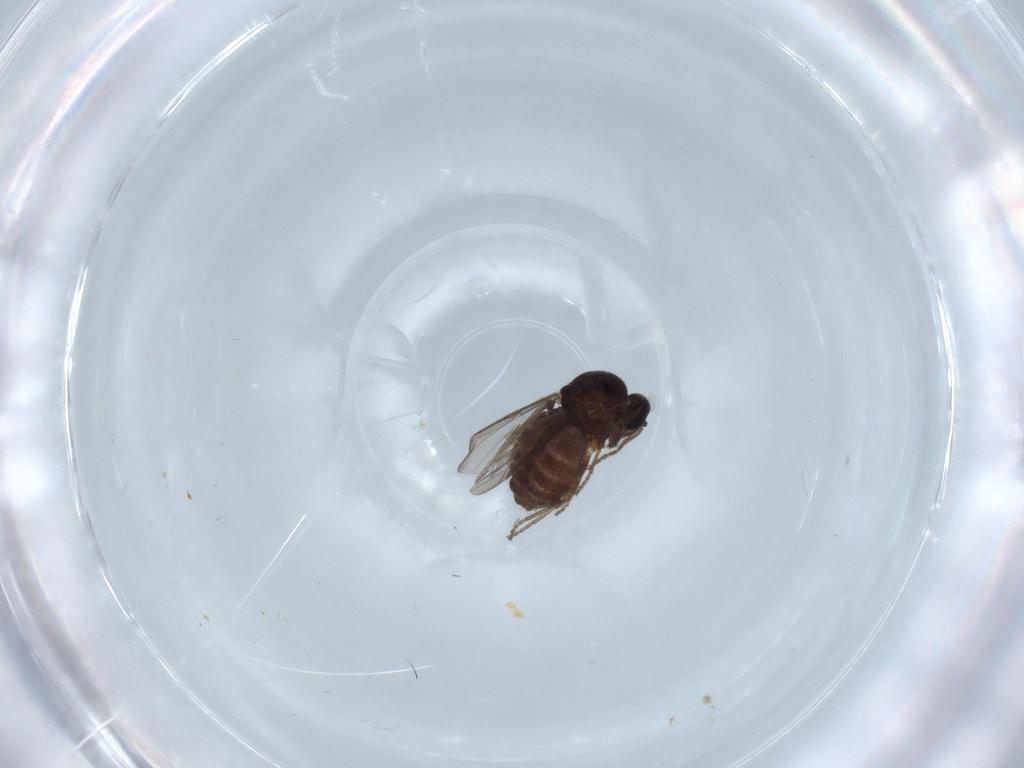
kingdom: Animalia
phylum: Arthropoda
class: Insecta
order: Diptera
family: Ceratopogonidae
